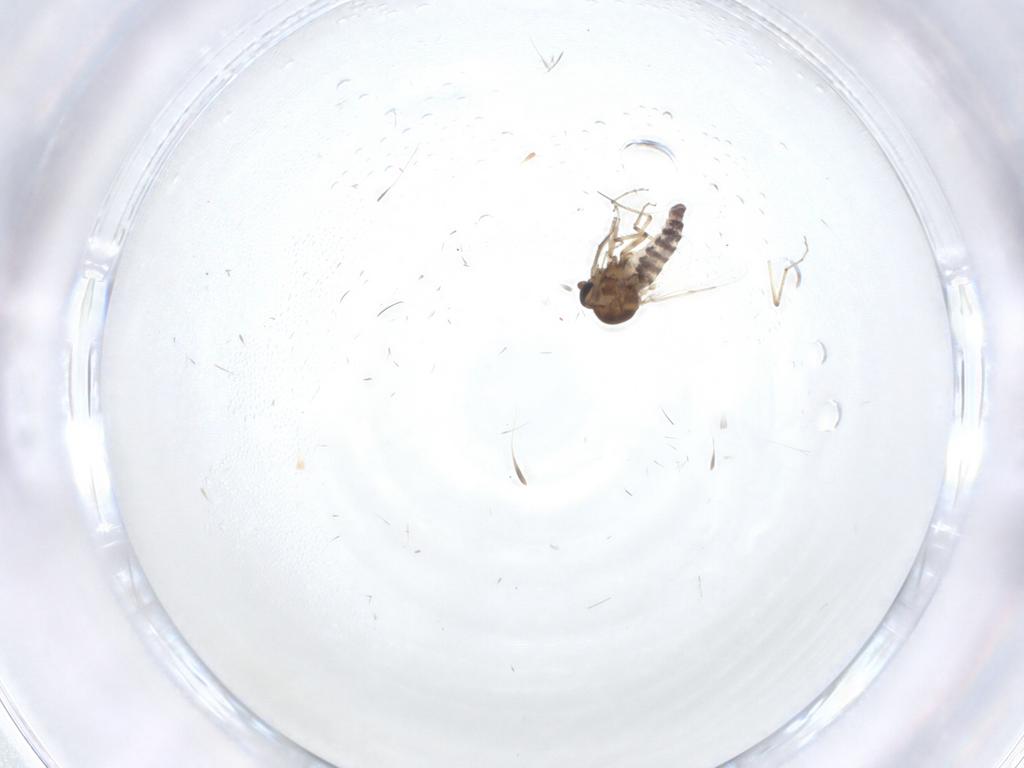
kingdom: Animalia
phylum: Arthropoda
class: Insecta
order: Diptera
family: Ceratopogonidae
